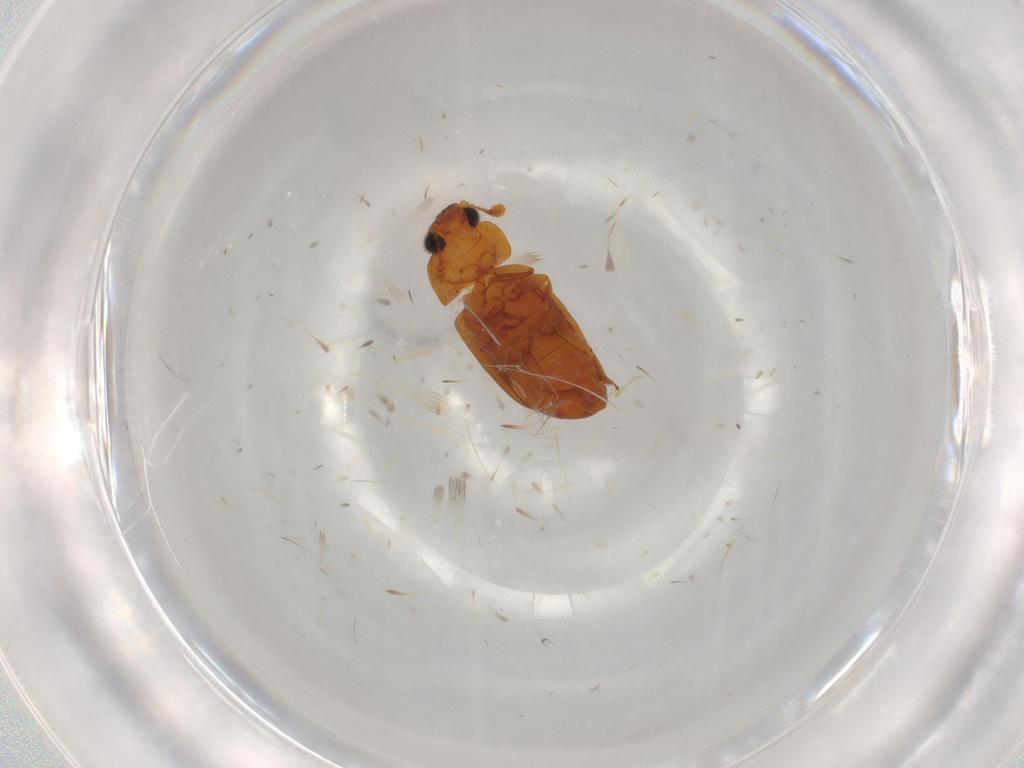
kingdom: Animalia
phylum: Arthropoda
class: Insecta
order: Coleoptera
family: Nitidulidae
